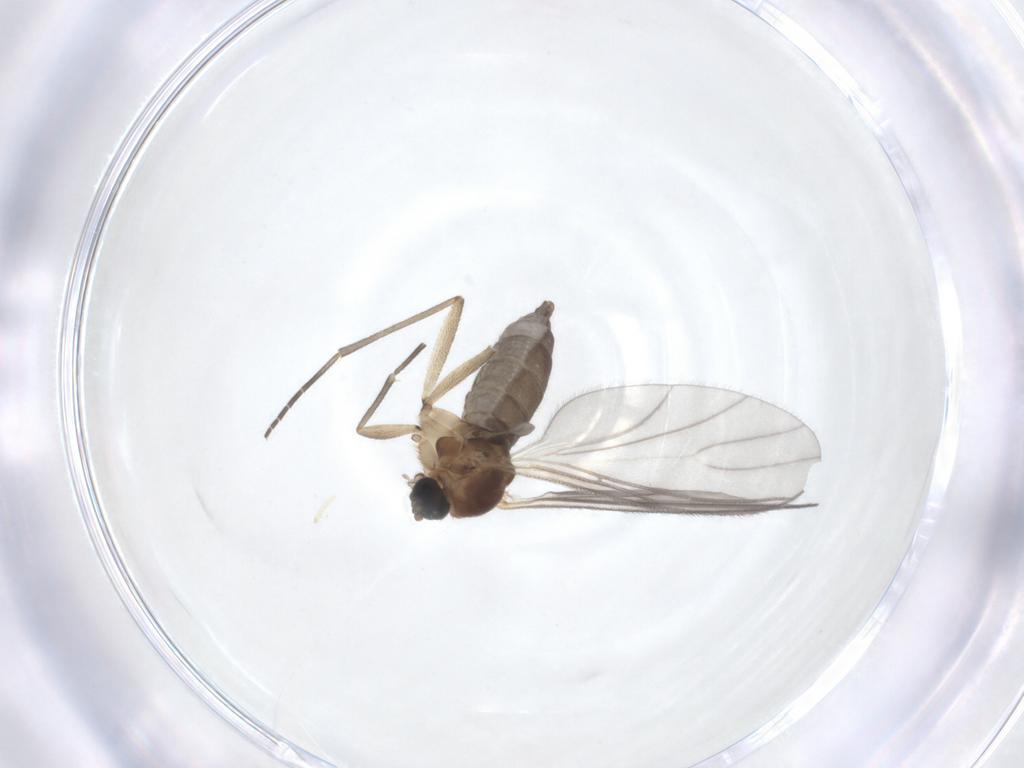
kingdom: Animalia
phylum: Arthropoda
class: Insecta
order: Diptera
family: Sciaridae
